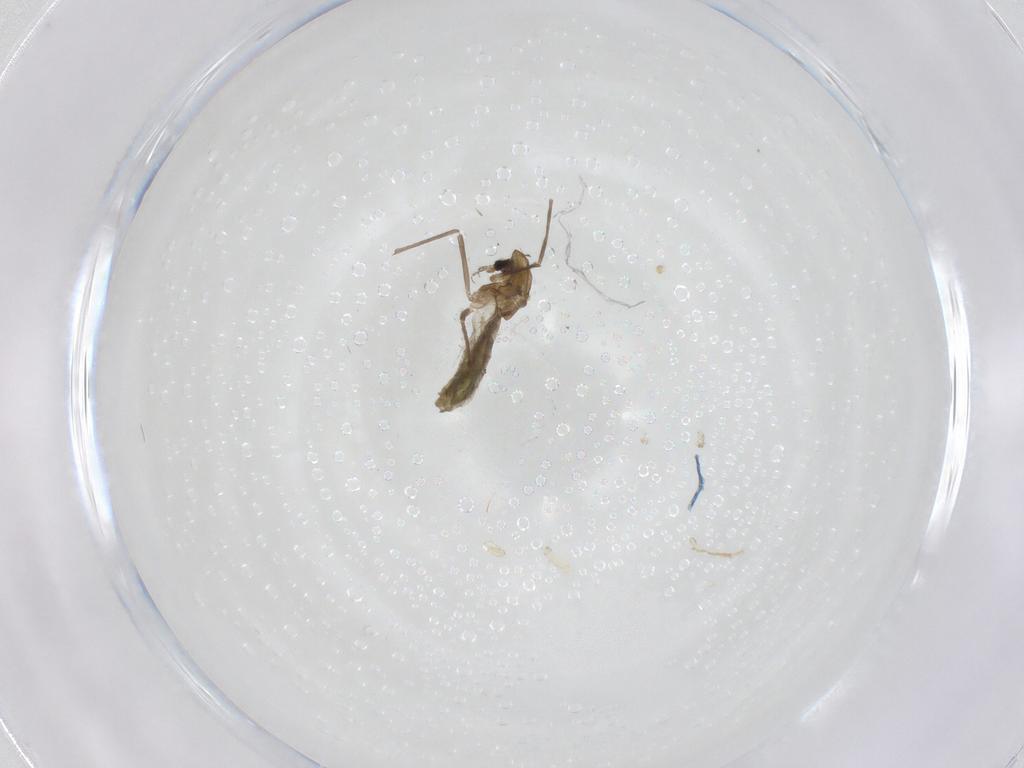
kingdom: Animalia
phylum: Arthropoda
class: Insecta
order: Diptera
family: Chironomidae
